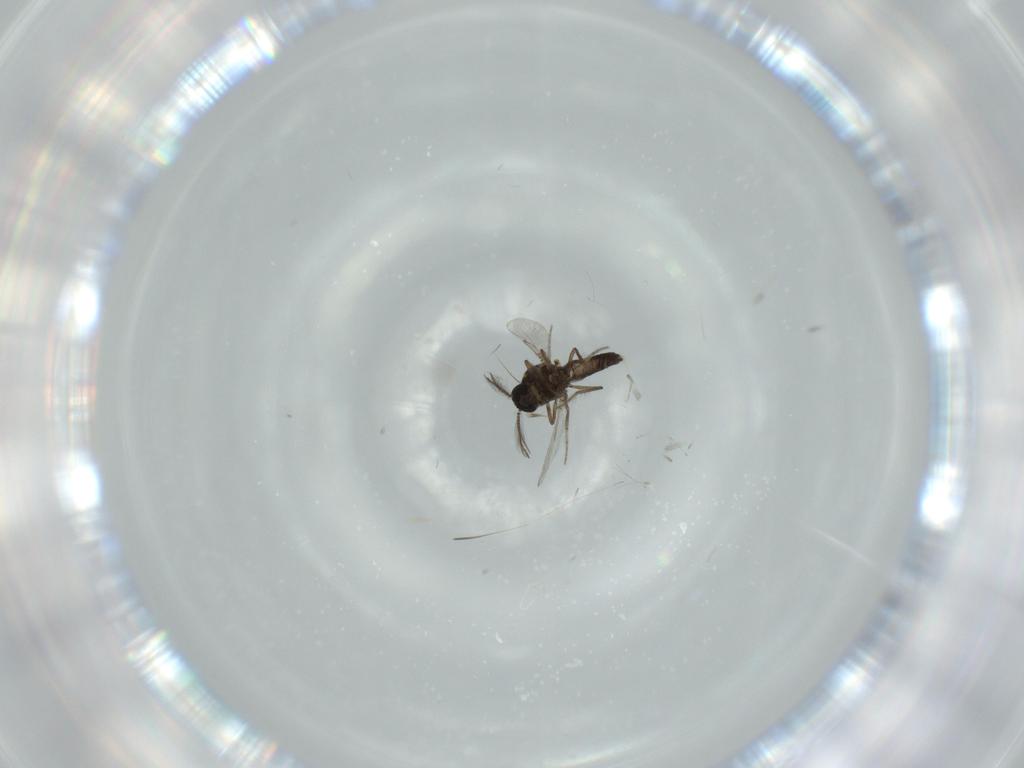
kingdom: Animalia
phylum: Arthropoda
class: Insecta
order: Diptera
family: Ceratopogonidae
